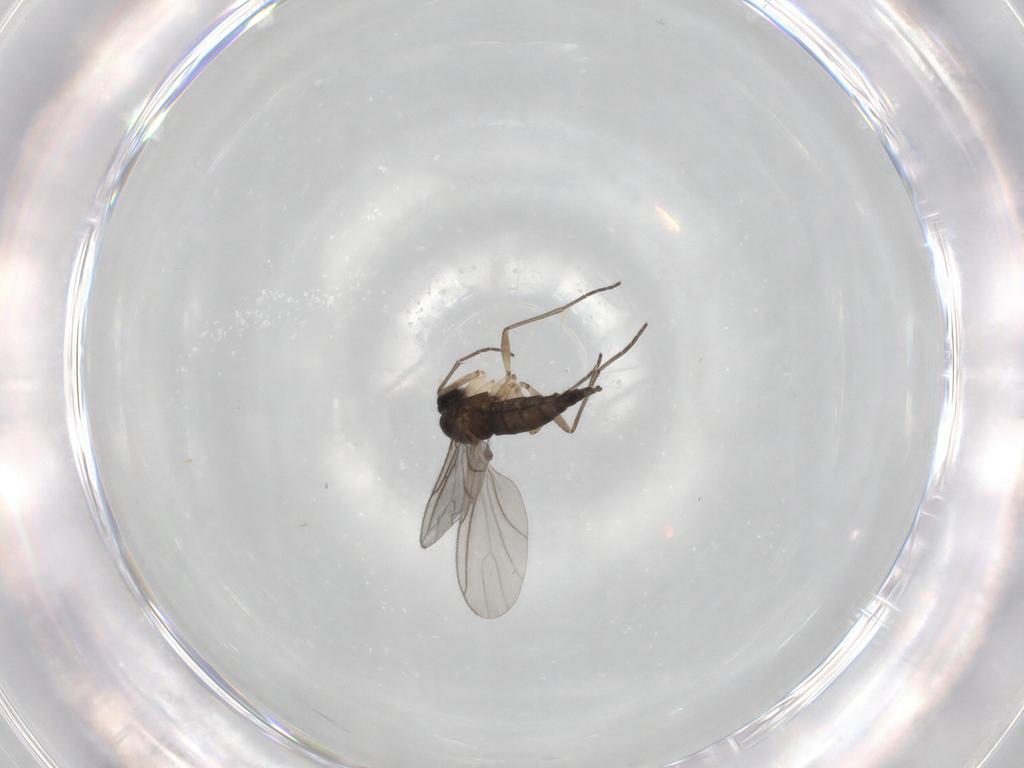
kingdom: Animalia
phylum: Arthropoda
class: Insecta
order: Diptera
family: Sciaridae
